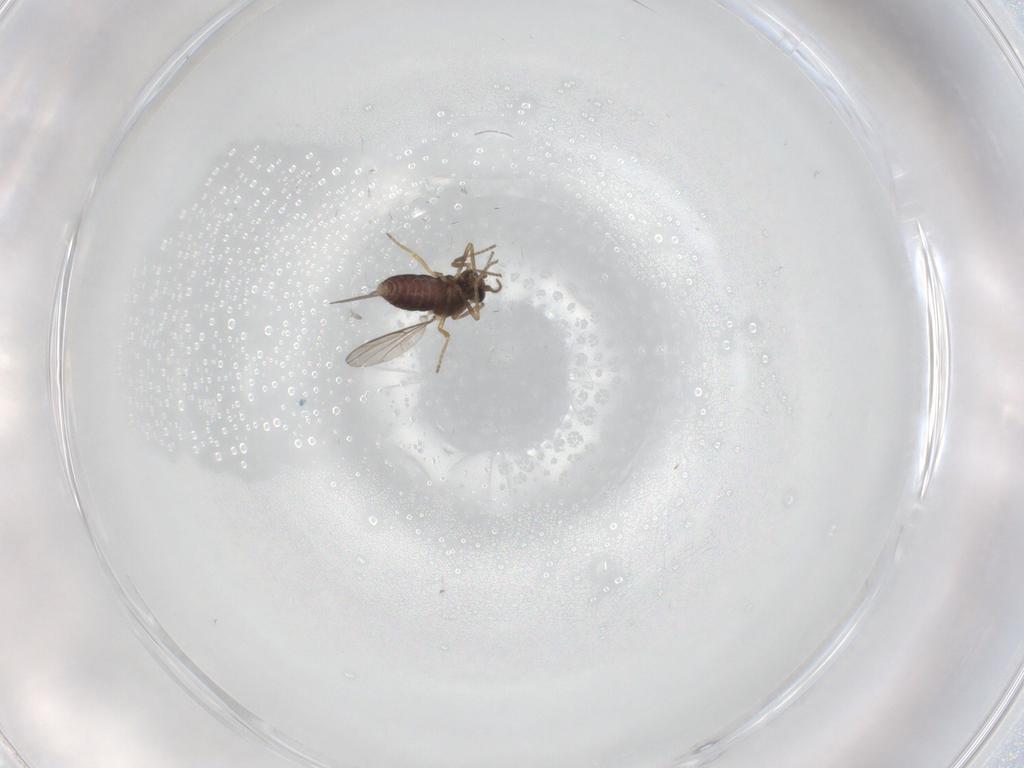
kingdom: Animalia
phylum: Arthropoda
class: Insecta
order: Diptera
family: Ceratopogonidae
